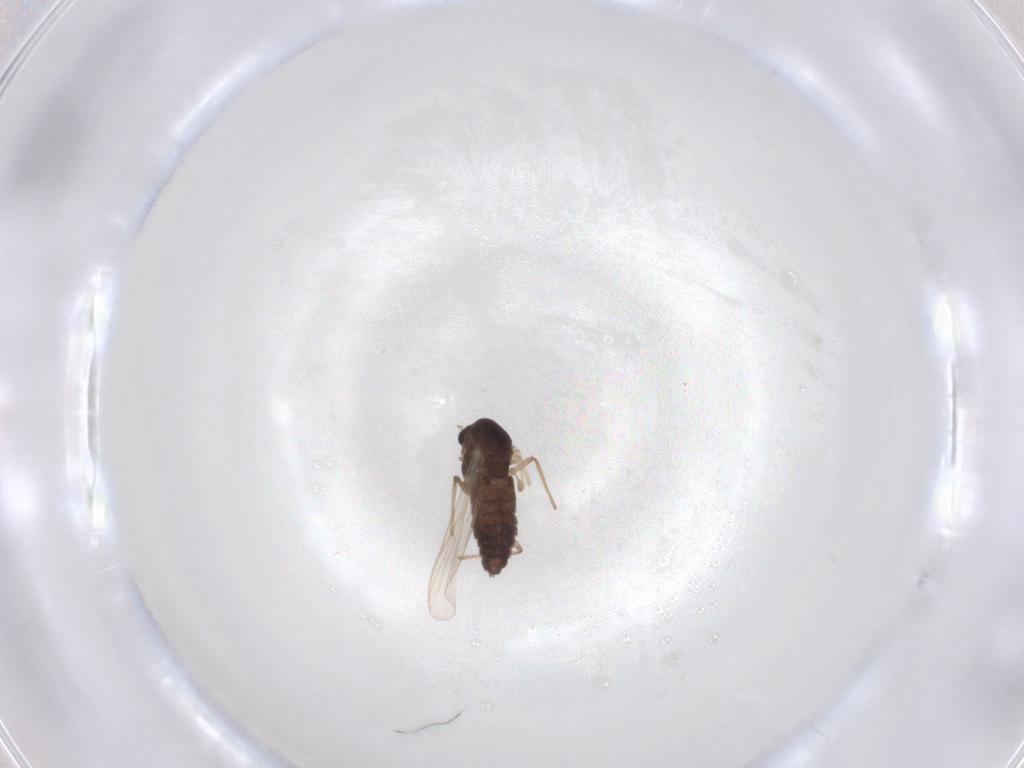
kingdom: Animalia
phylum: Arthropoda
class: Insecta
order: Diptera
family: Chironomidae
